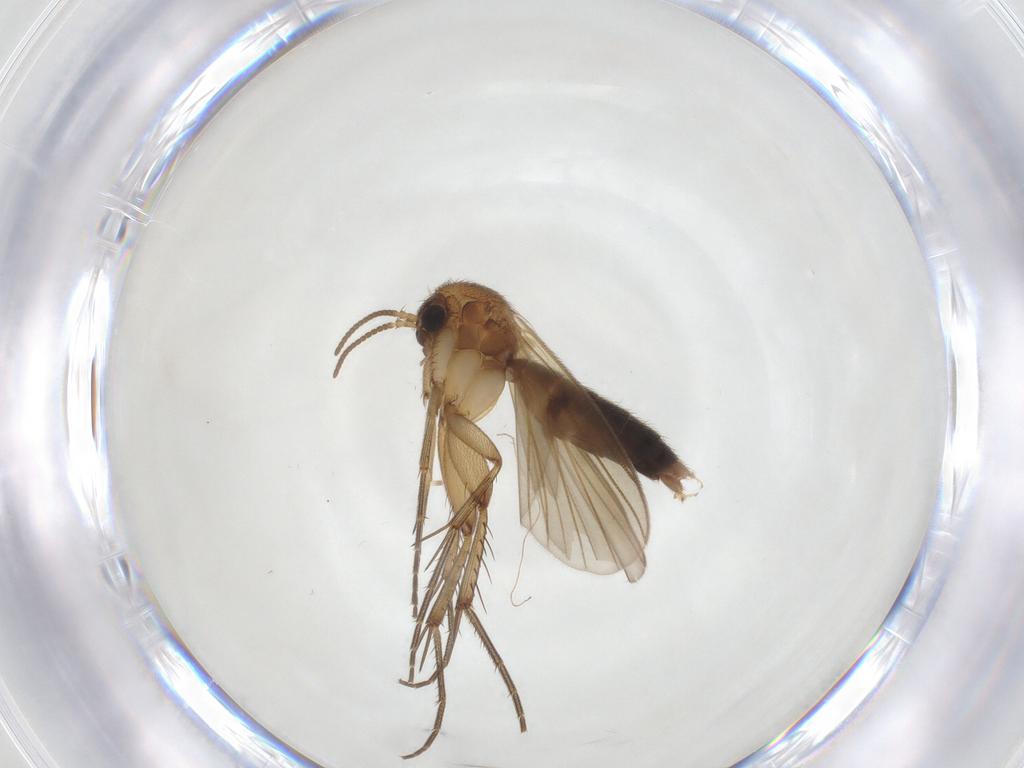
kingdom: Animalia
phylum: Arthropoda
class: Insecta
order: Diptera
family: Cecidomyiidae
